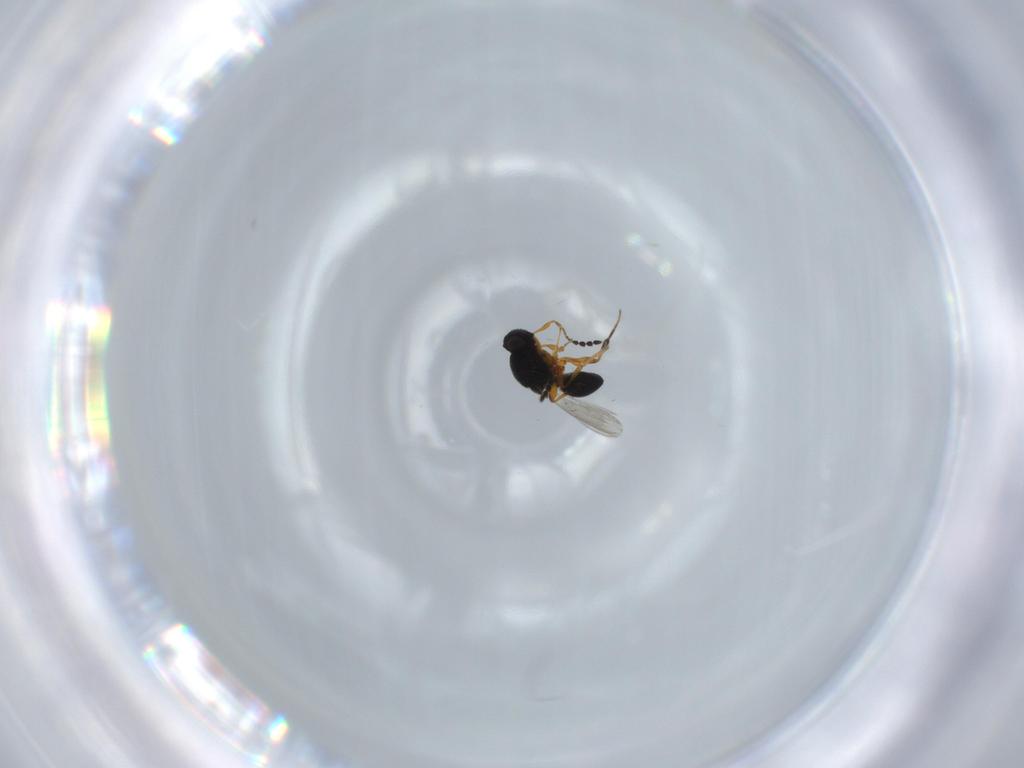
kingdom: Animalia
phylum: Arthropoda
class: Insecta
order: Hymenoptera
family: Platygastridae
